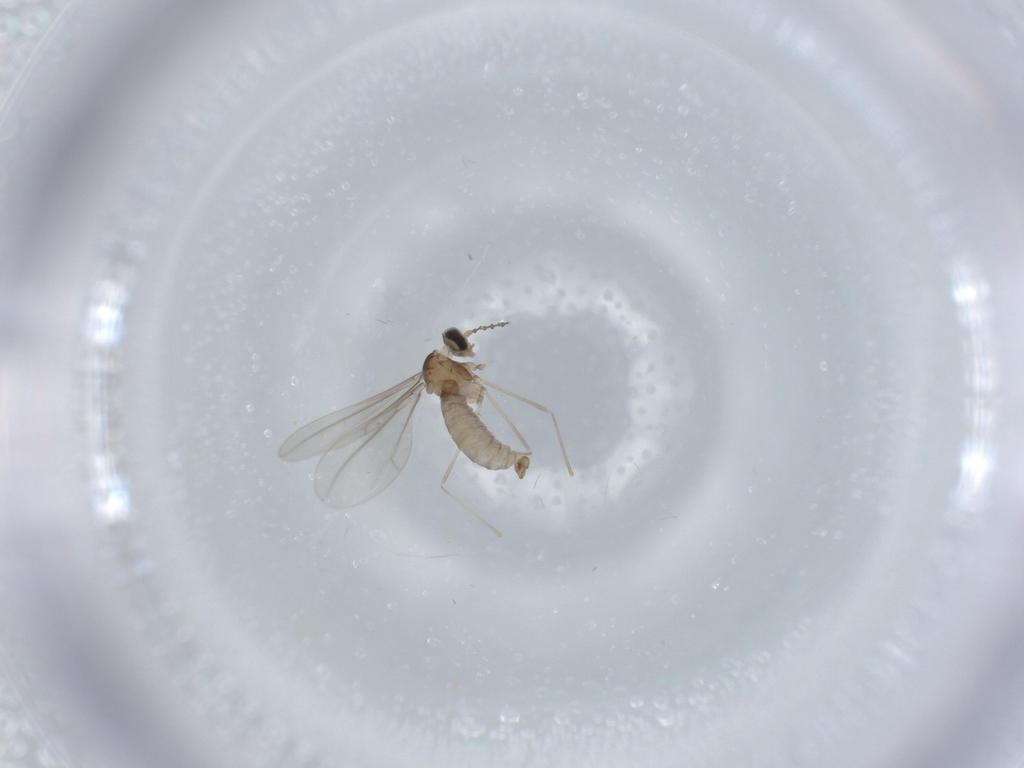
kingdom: Animalia
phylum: Arthropoda
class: Insecta
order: Diptera
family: Cecidomyiidae
